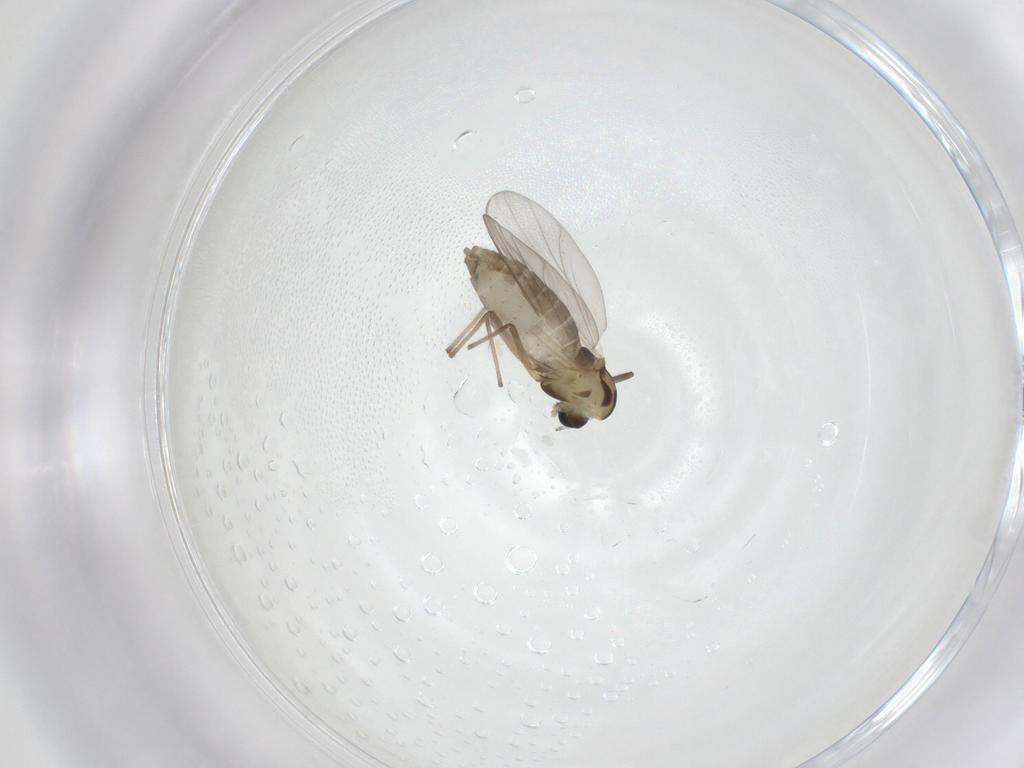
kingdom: Animalia
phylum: Arthropoda
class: Insecta
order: Diptera
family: Chironomidae
